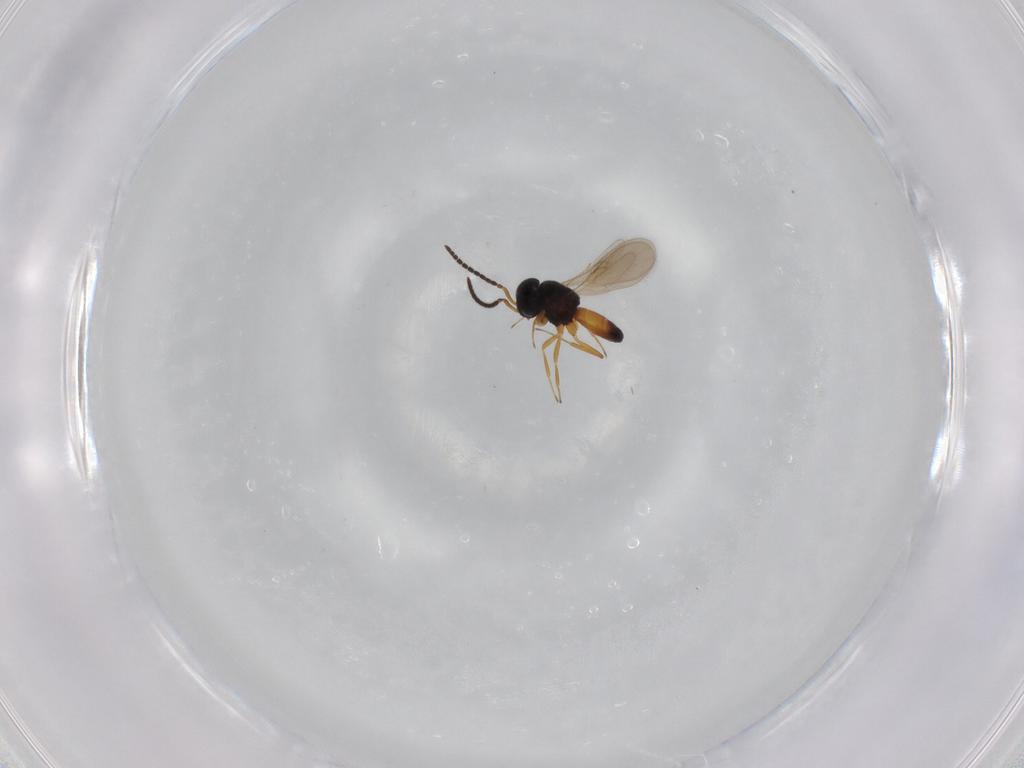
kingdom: Animalia
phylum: Arthropoda
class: Insecta
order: Hymenoptera
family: Scelionidae
